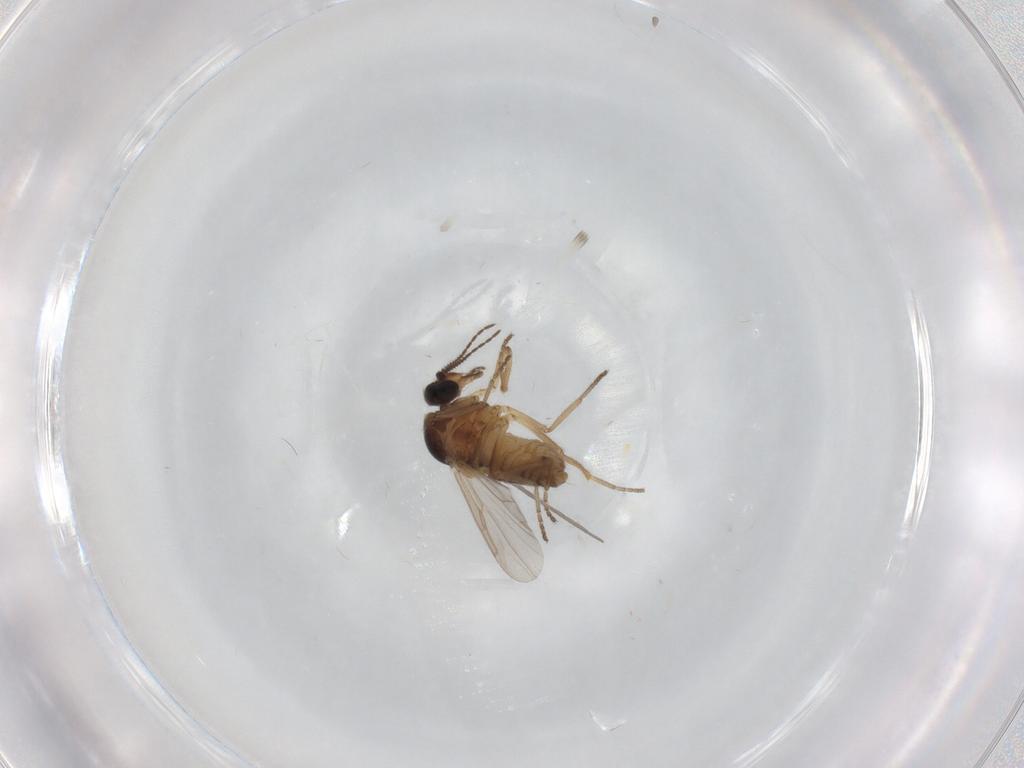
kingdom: Animalia
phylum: Arthropoda
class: Insecta
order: Diptera
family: Ceratopogonidae
